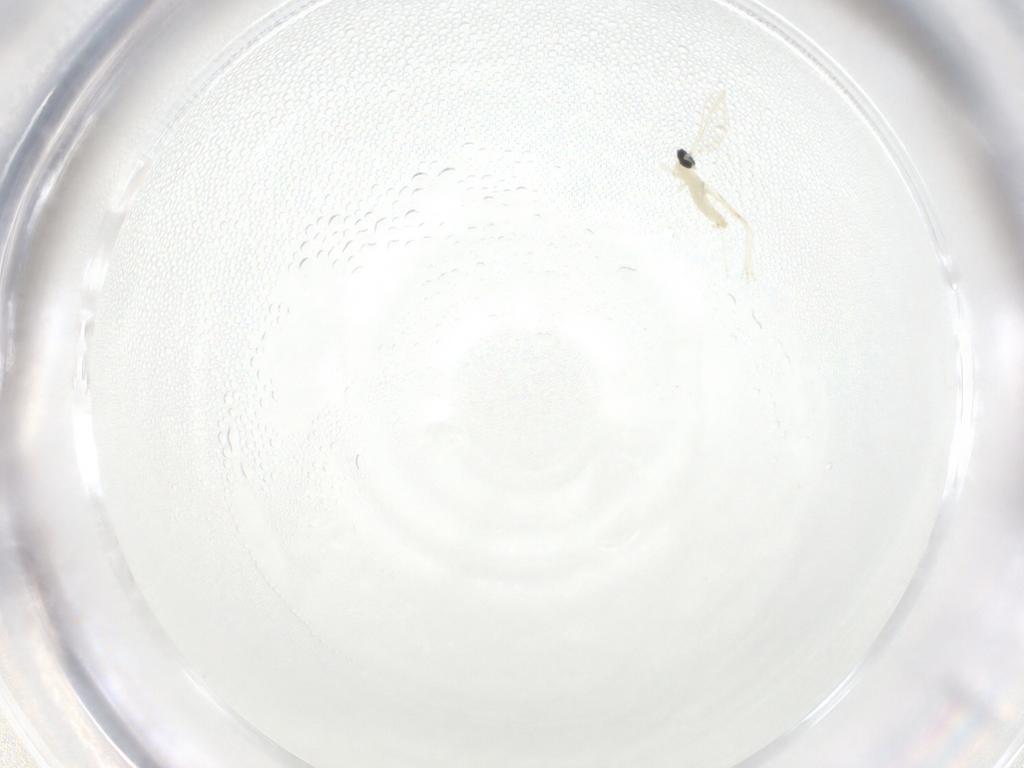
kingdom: Animalia
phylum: Arthropoda
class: Insecta
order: Diptera
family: Cecidomyiidae
